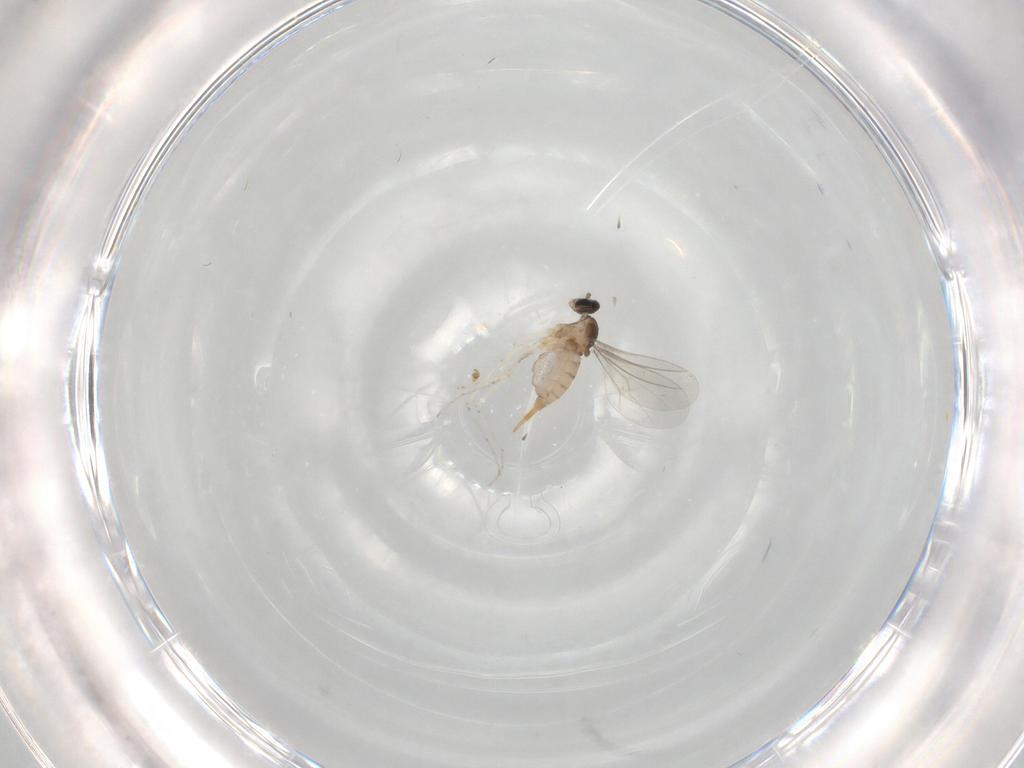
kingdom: Animalia
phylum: Arthropoda
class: Insecta
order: Diptera
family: Cecidomyiidae
